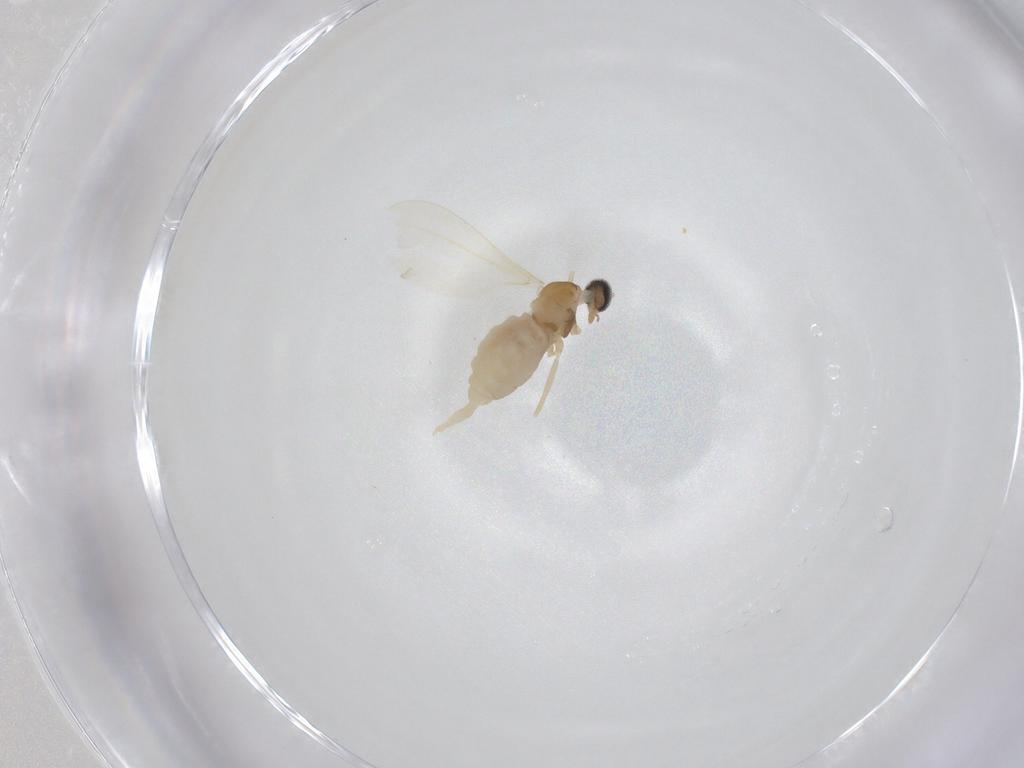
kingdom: Animalia
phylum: Arthropoda
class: Insecta
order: Diptera
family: Cecidomyiidae
